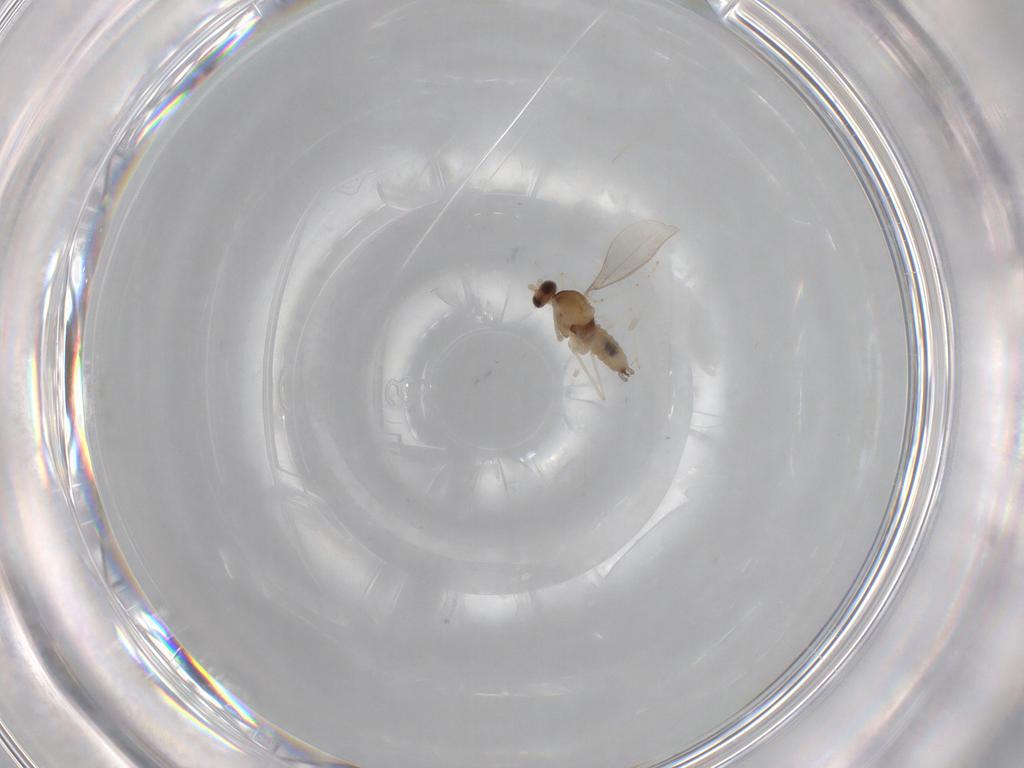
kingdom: Animalia
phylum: Arthropoda
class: Insecta
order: Diptera
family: Cecidomyiidae
